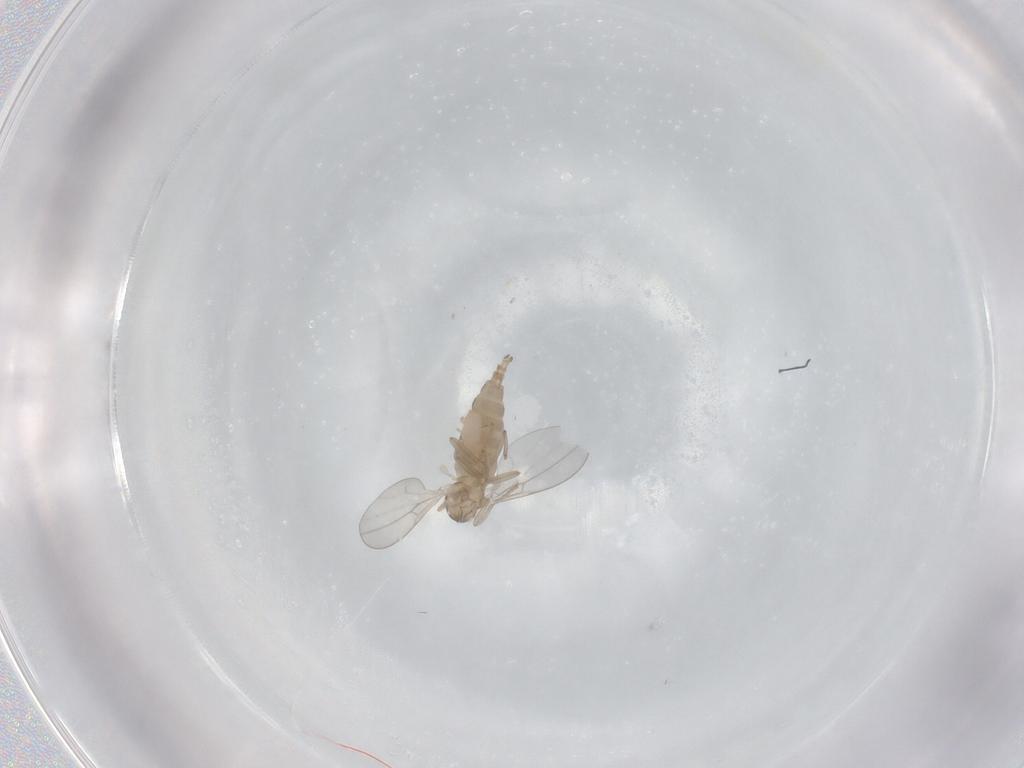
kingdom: Animalia
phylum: Arthropoda
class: Insecta
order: Diptera
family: Cecidomyiidae
